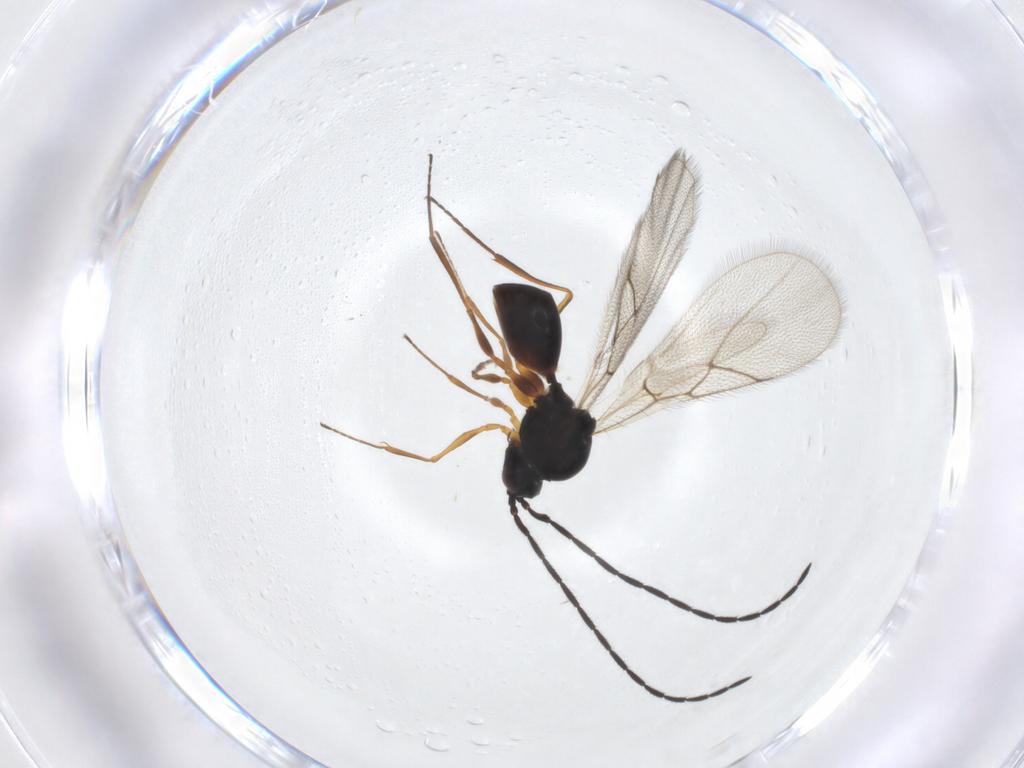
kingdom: Animalia
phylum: Arthropoda
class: Insecta
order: Hymenoptera
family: Figitidae
